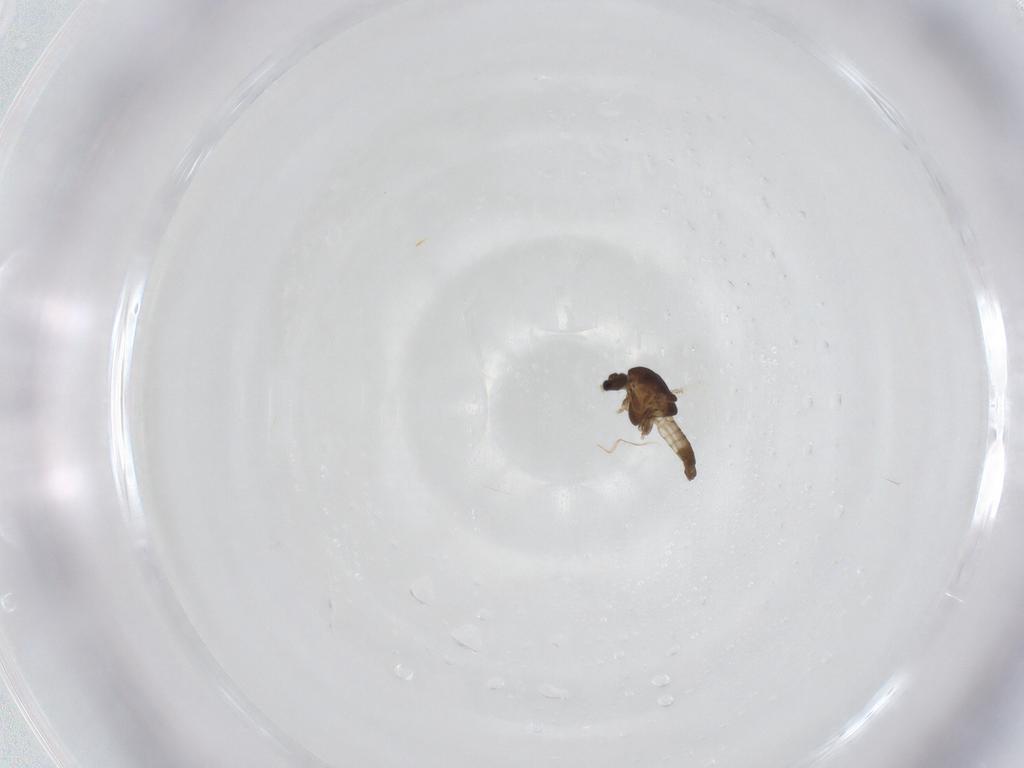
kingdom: Animalia
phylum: Arthropoda
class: Insecta
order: Diptera
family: Chironomidae
